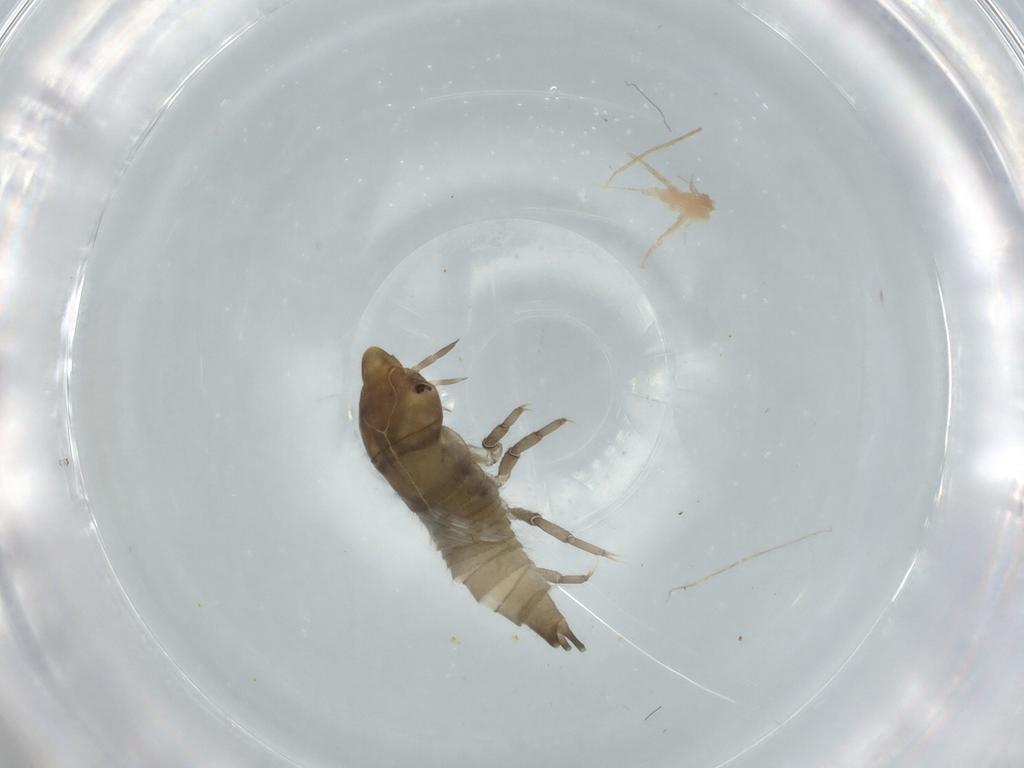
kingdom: Animalia
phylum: Arthropoda
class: Insecta
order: Coleoptera
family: Dytiscidae
